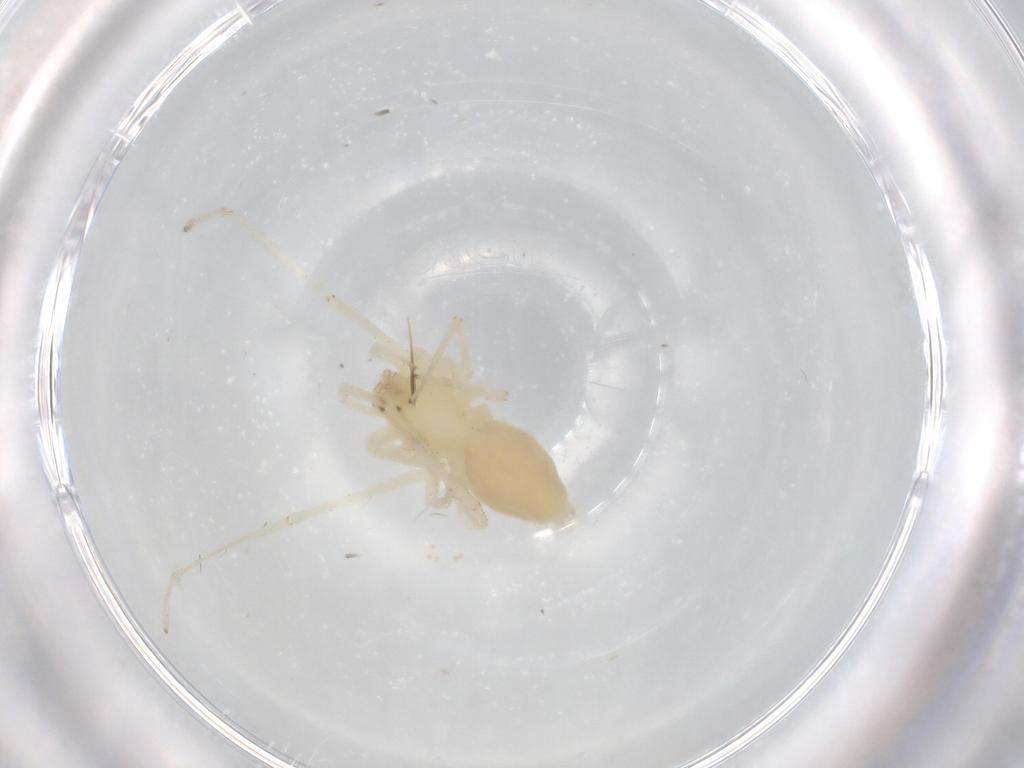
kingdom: Animalia
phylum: Arthropoda
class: Arachnida
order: Araneae
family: Anyphaenidae
